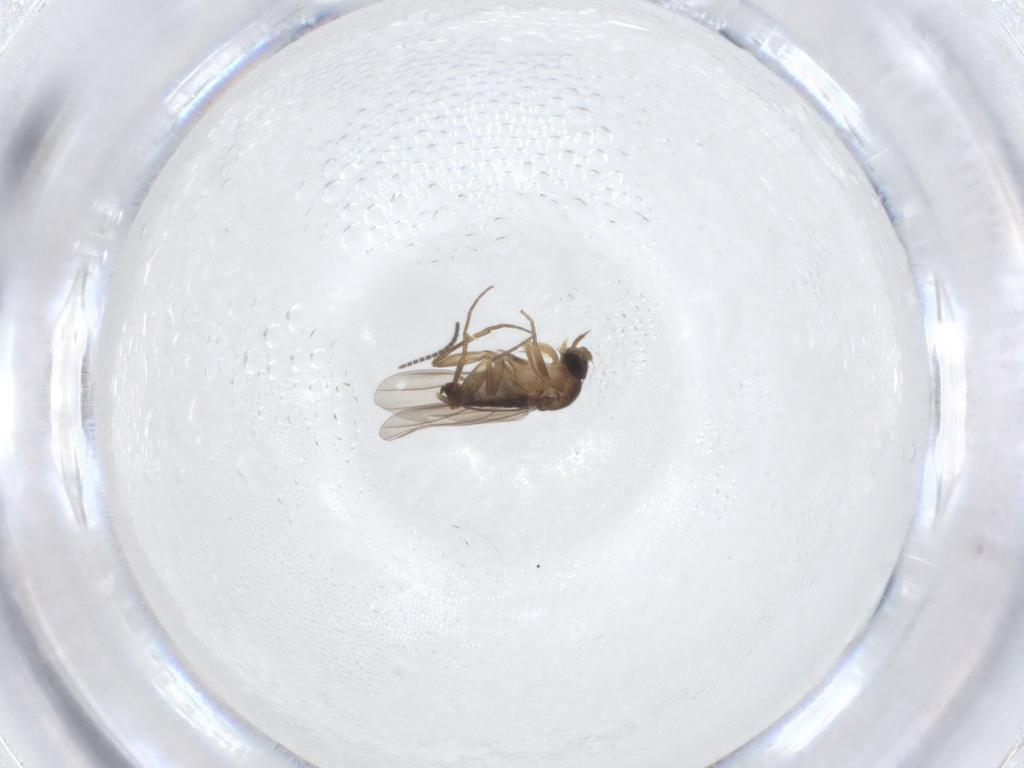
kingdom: Animalia
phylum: Arthropoda
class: Insecta
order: Diptera
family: Phoridae
